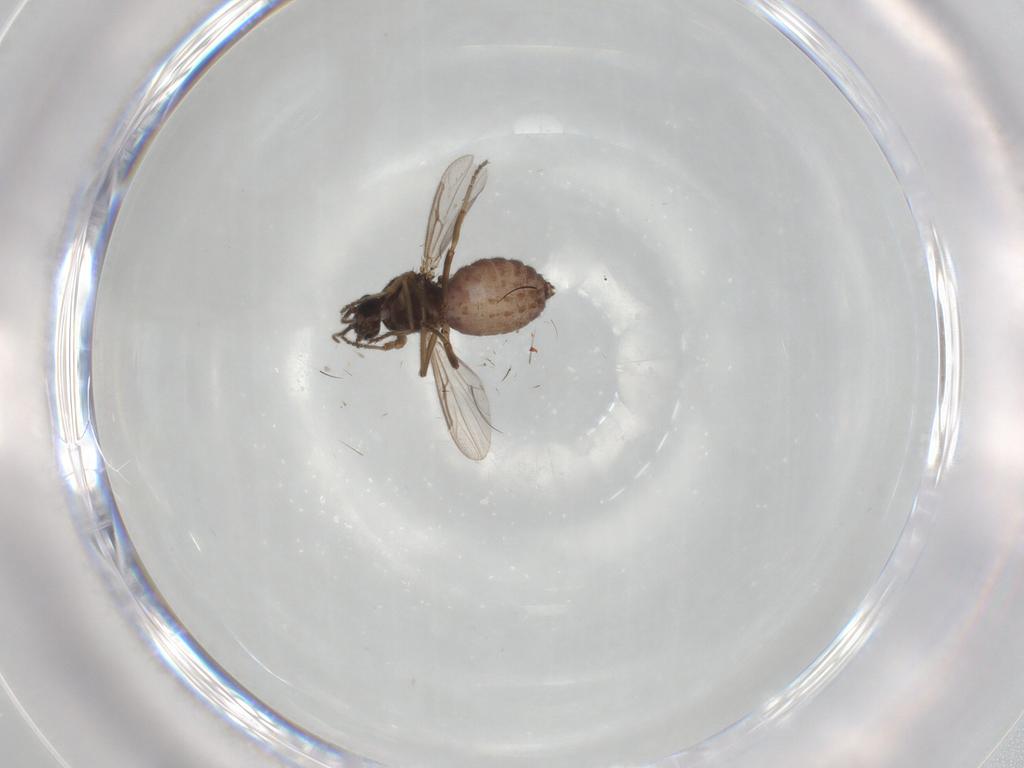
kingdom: Animalia
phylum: Arthropoda
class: Insecta
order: Diptera
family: Ceratopogonidae
